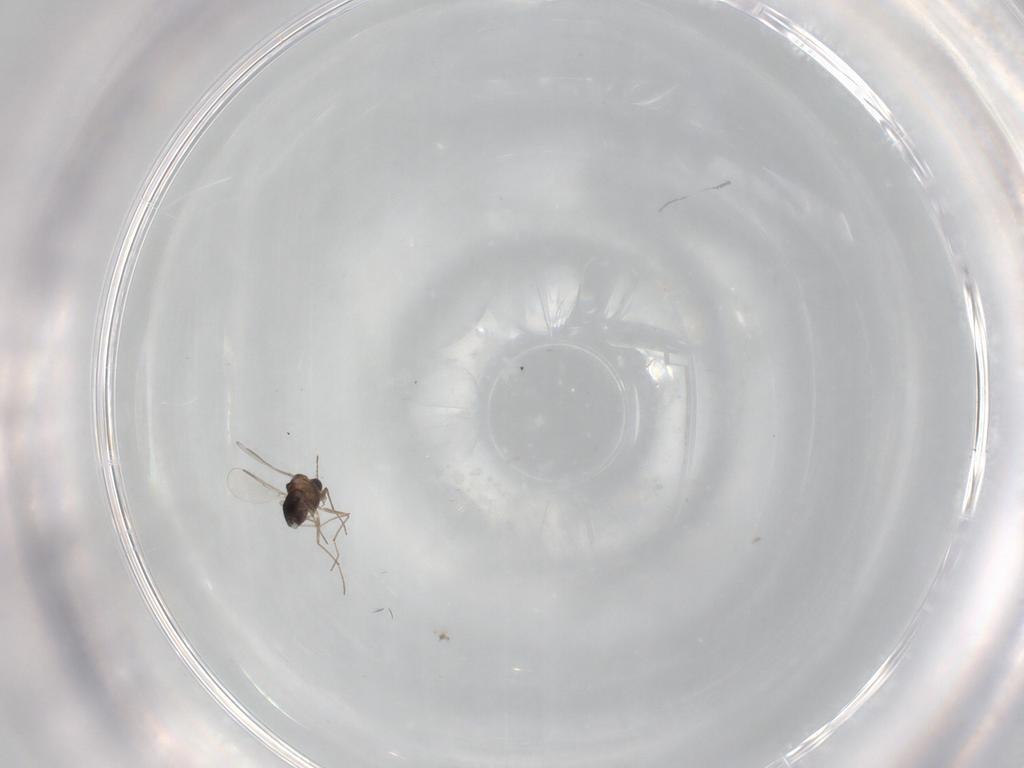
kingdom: Animalia
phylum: Arthropoda
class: Insecta
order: Diptera
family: Chironomidae
